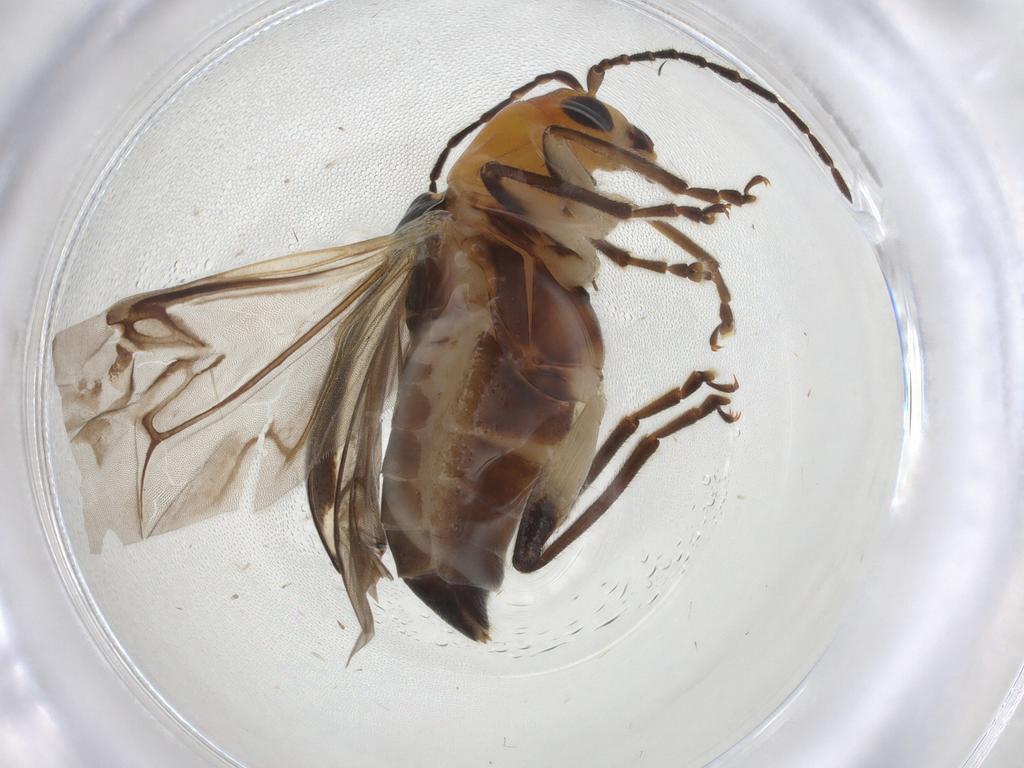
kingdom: Animalia
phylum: Arthropoda
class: Insecta
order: Coleoptera
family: Chrysomelidae
